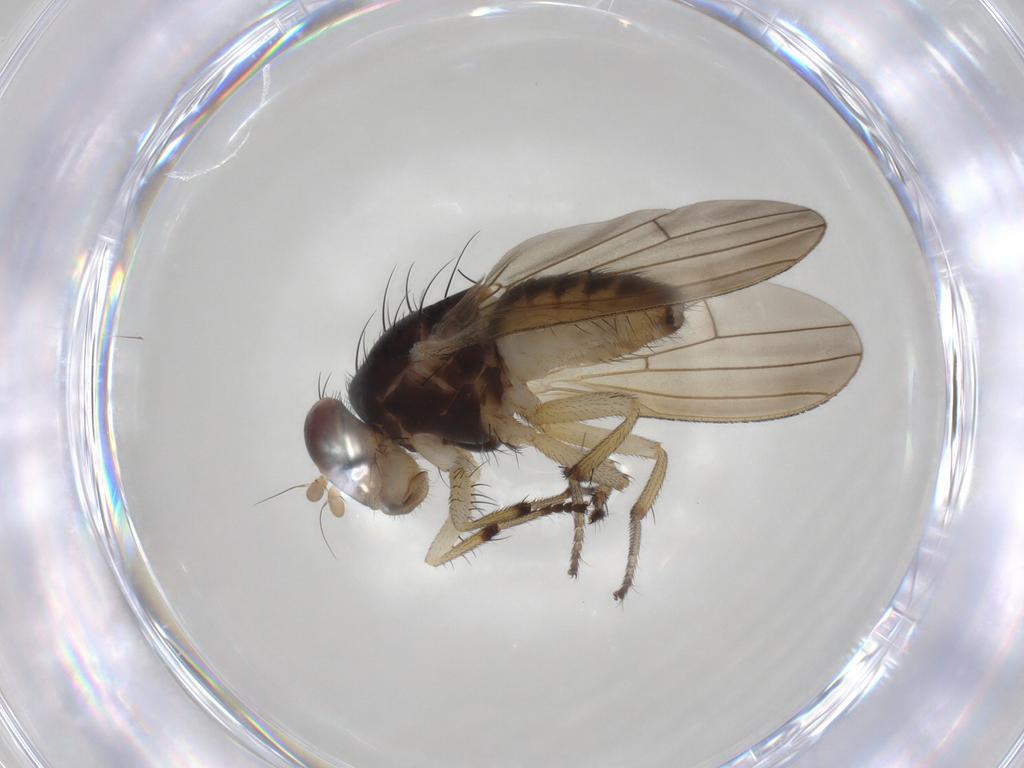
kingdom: Animalia
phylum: Arthropoda
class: Insecta
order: Diptera
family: Lauxaniidae
